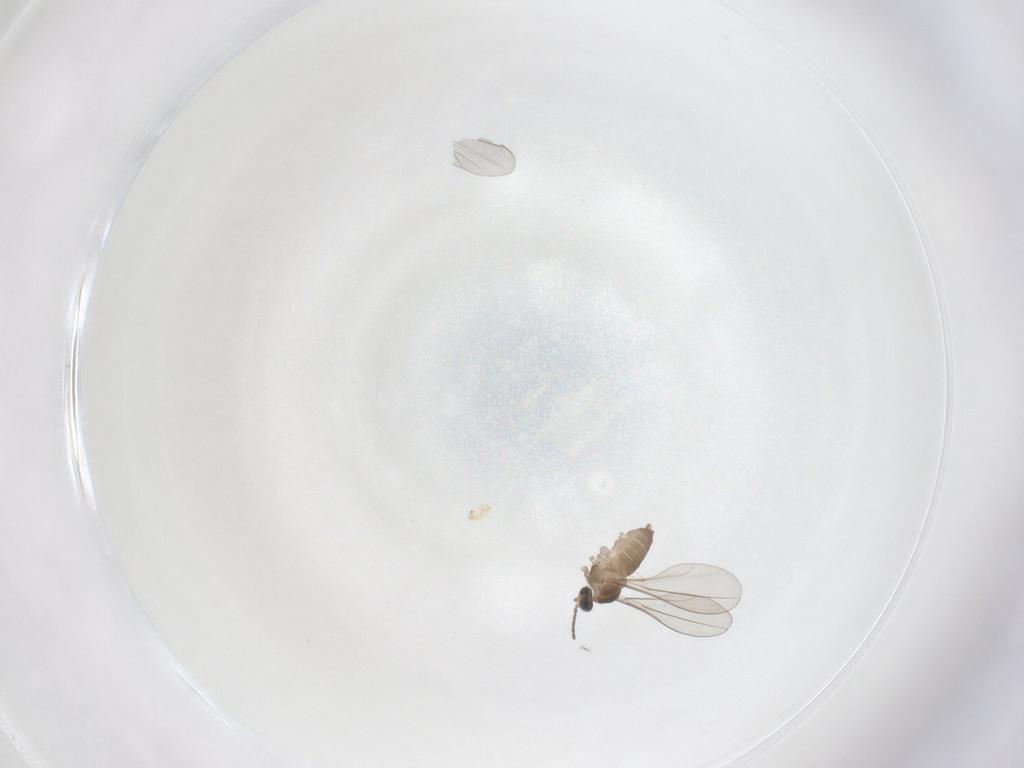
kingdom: Animalia
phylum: Arthropoda
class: Insecta
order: Diptera
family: Cecidomyiidae
